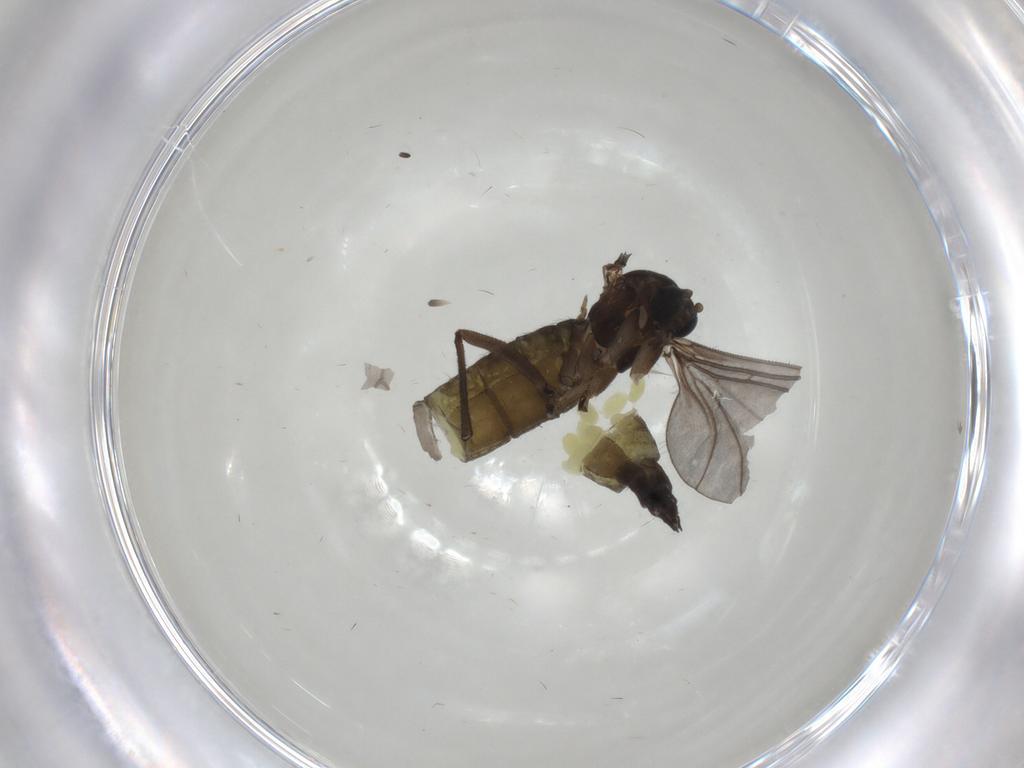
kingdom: Animalia
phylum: Arthropoda
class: Insecta
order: Diptera
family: Sciaridae
